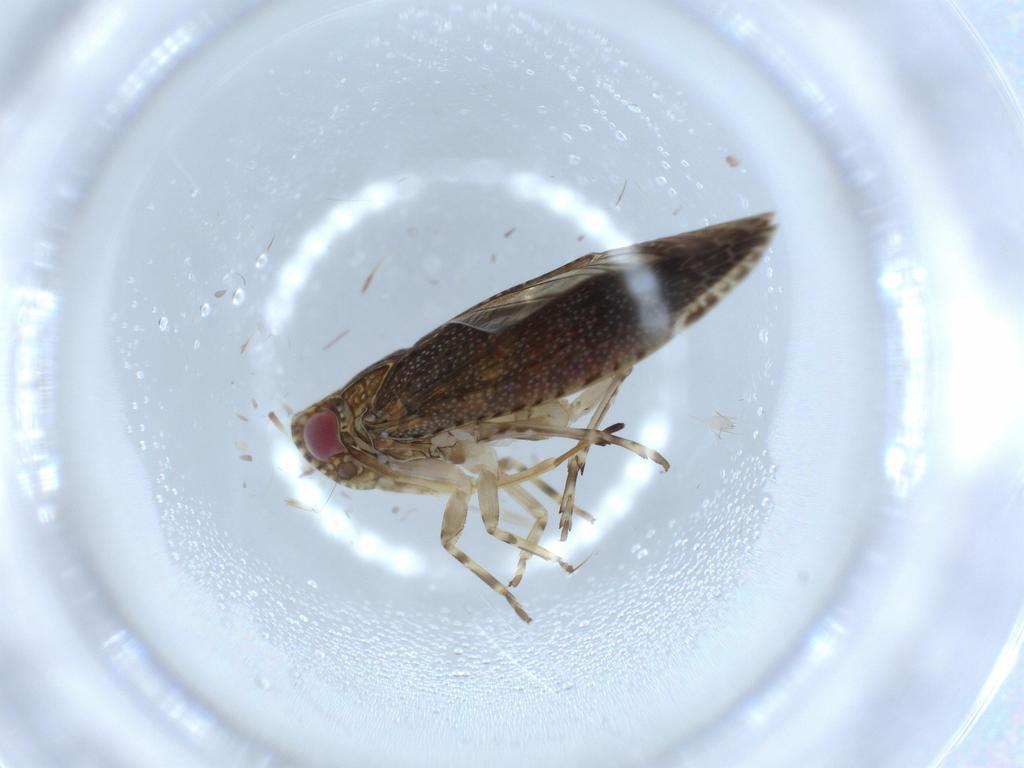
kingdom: Animalia
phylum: Arthropoda
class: Insecta
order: Hemiptera
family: Achilidae
